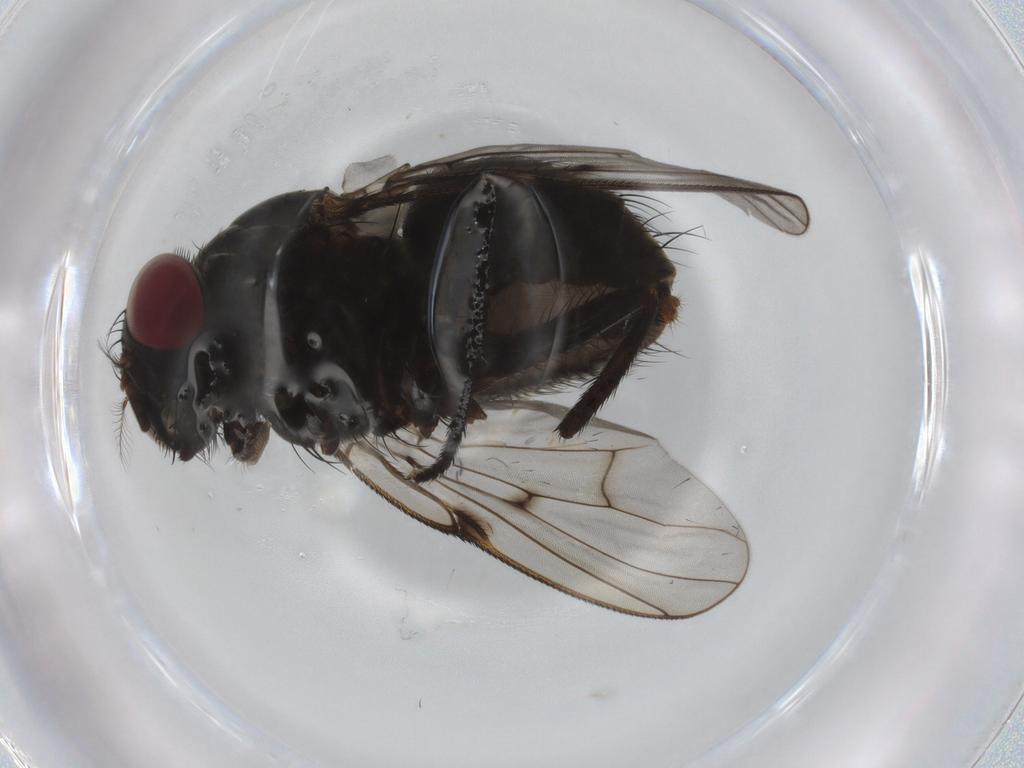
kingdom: Animalia
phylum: Arthropoda
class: Insecta
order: Diptera
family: Muscidae
